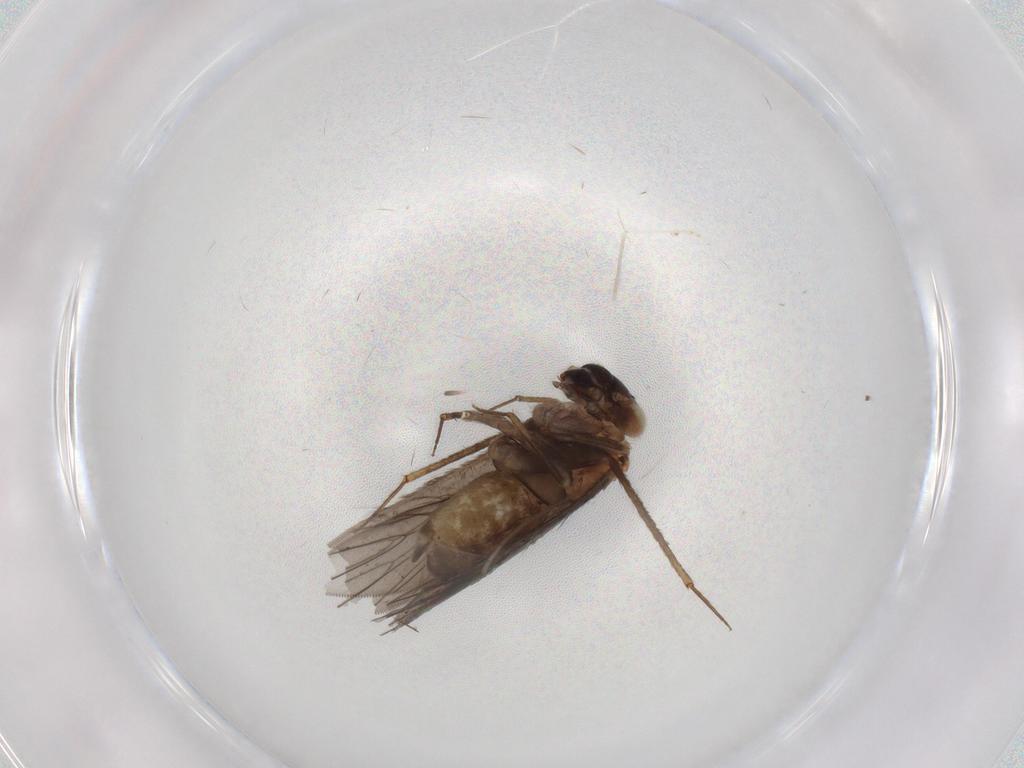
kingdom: Animalia
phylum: Arthropoda
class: Insecta
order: Psocodea
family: Lepidopsocidae
